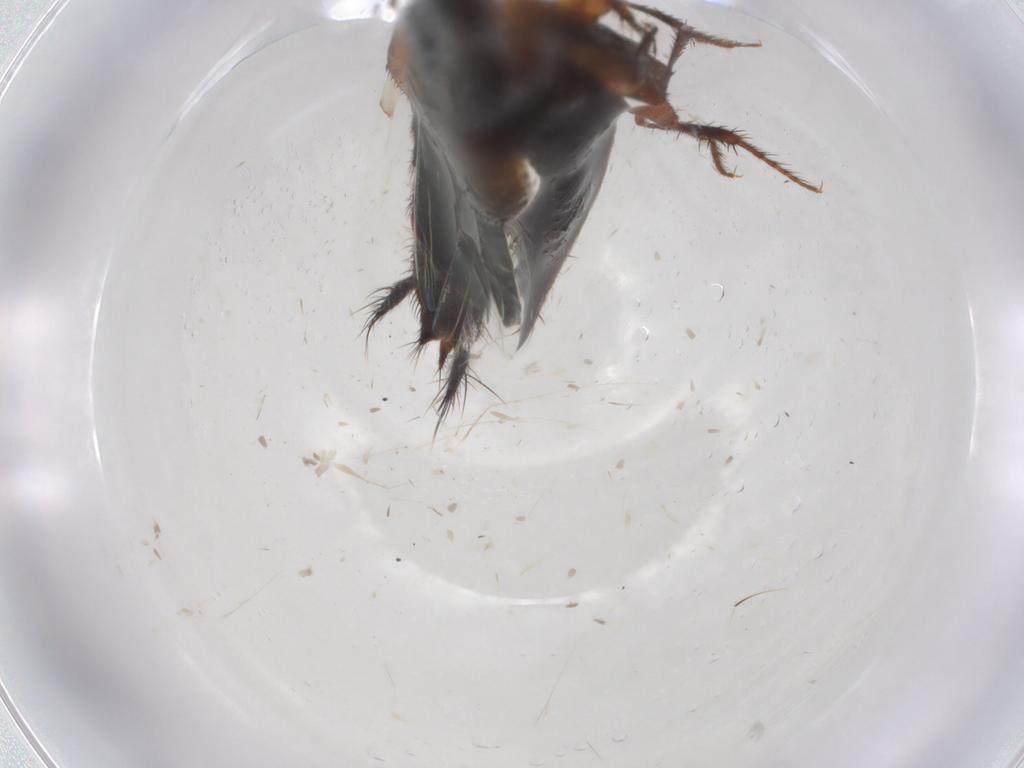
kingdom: Animalia
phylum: Arthropoda
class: Insecta
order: Coleoptera
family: Staphylinidae
